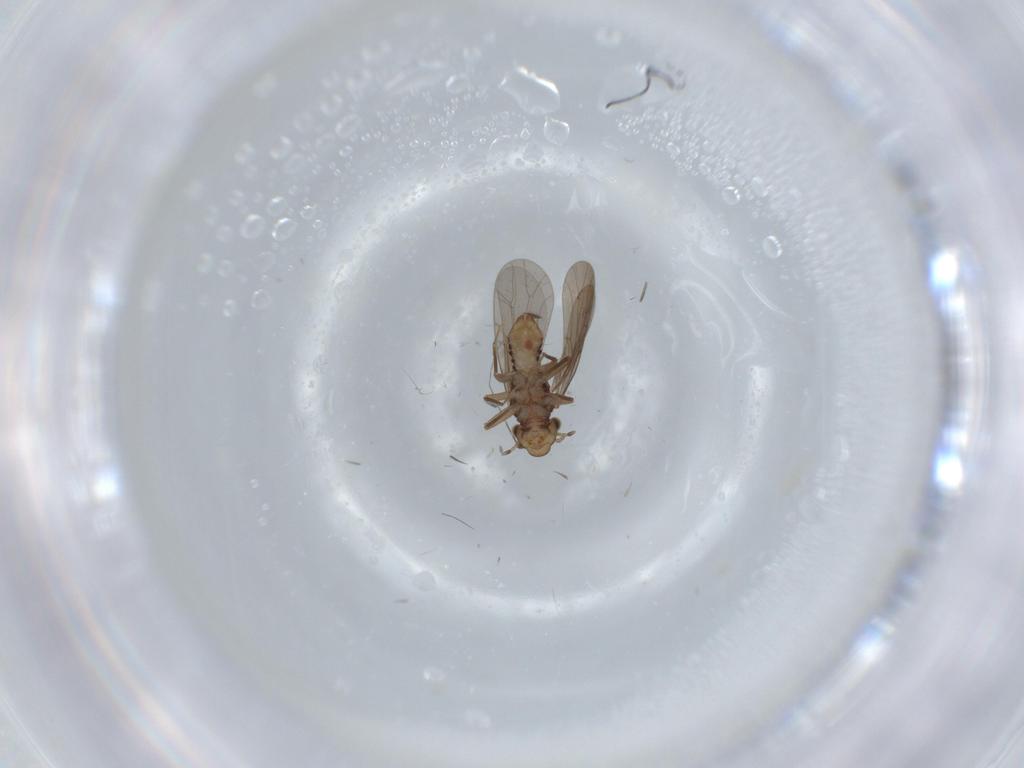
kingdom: Animalia
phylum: Arthropoda
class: Insecta
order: Psocodea
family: Lepidopsocidae
